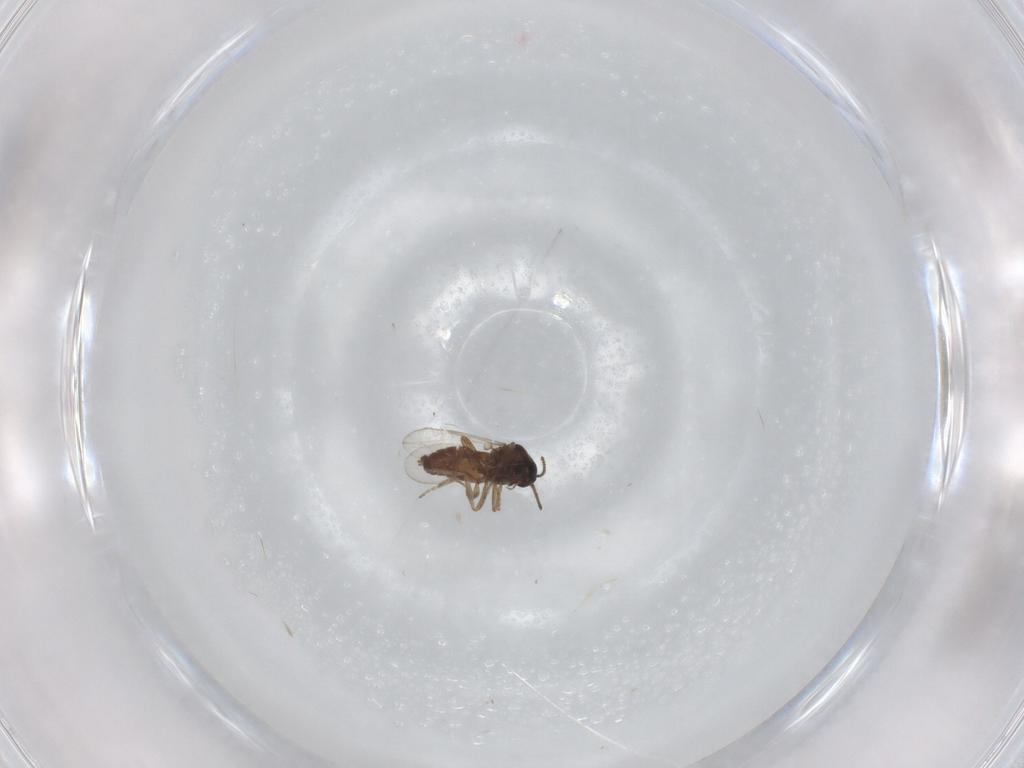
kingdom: Animalia
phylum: Arthropoda
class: Insecta
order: Diptera
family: Ceratopogonidae
